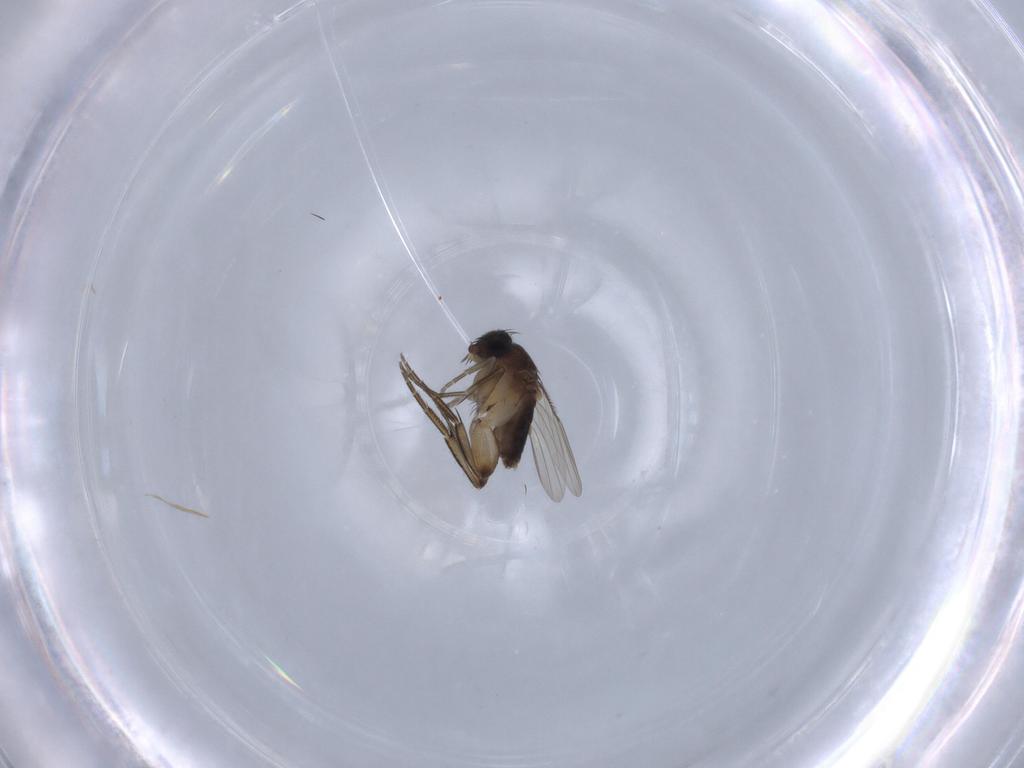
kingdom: Animalia
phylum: Arthropoda
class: Insecta
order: Diptera
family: Phoridae
